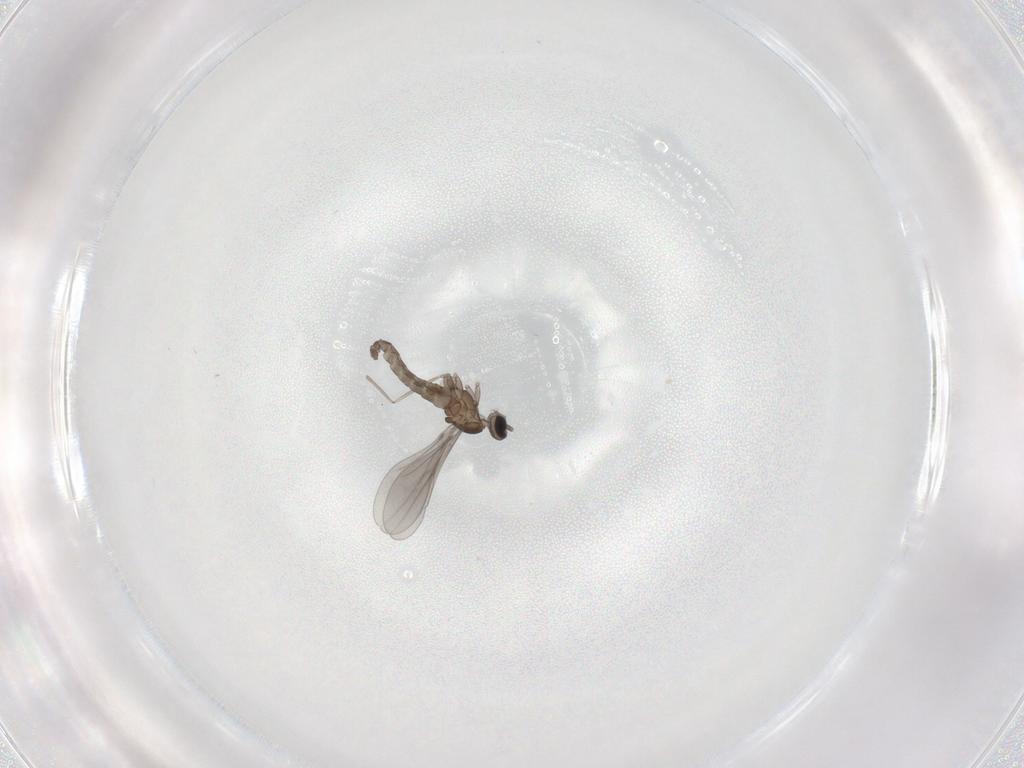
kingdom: Animalia
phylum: Arthropoda
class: Insecta
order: Diptera
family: Cecidomyiidae
